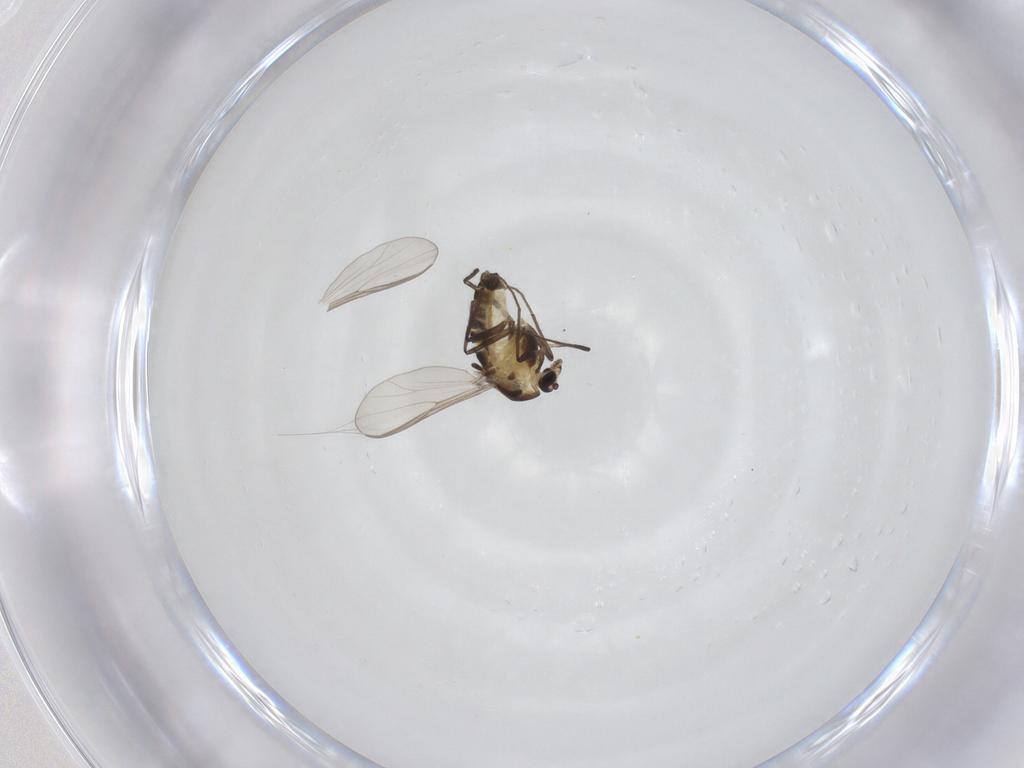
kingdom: Animalia
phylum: Arthropoda
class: Insecta
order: Diptera
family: Chironomidae
